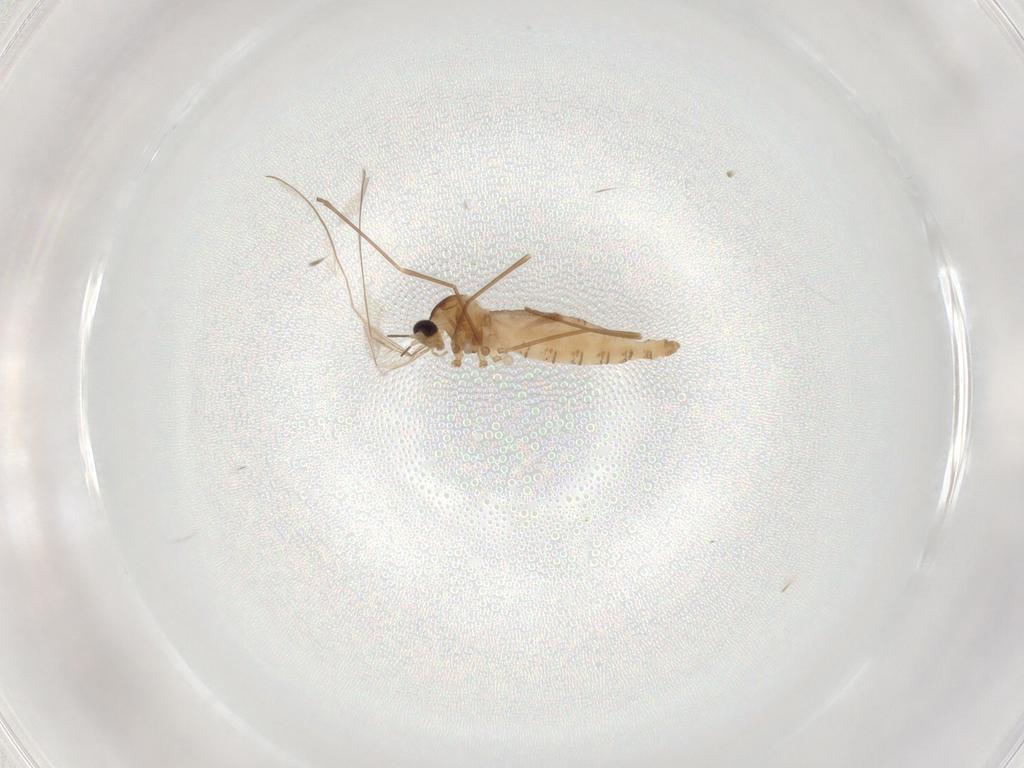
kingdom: Animalia
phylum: Arthropoda
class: Insecta
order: Diptera
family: Cecidomyiidae
